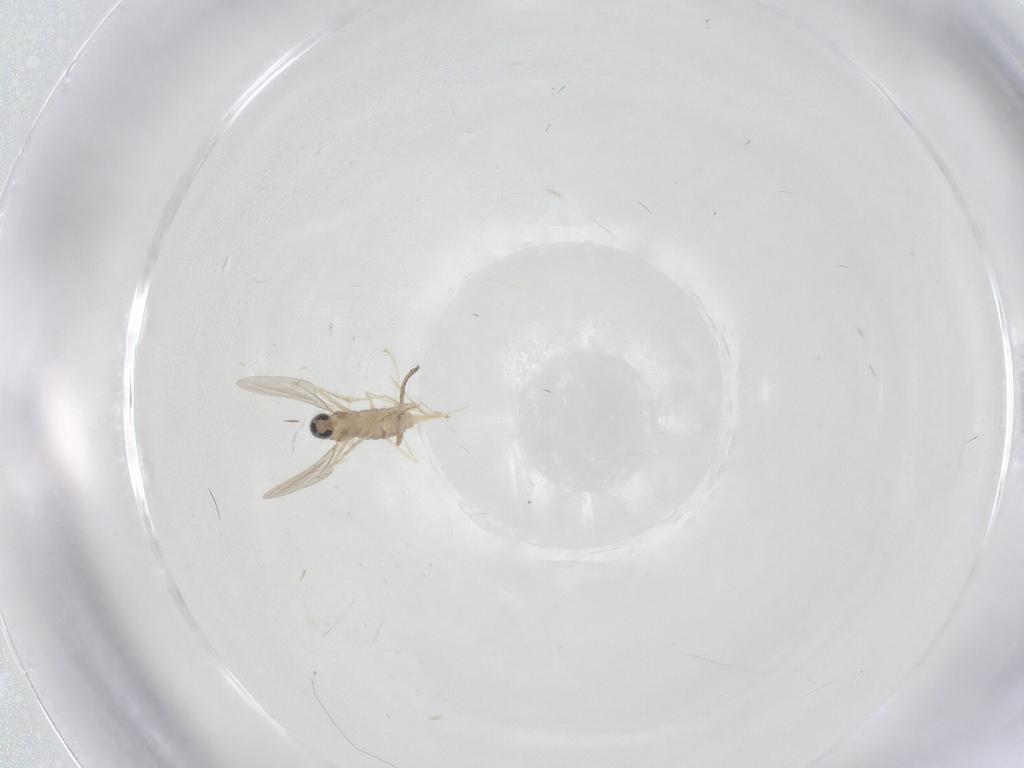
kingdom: Animalia
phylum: Arthropoda
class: Insecta
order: Diptera
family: Cecidomyiidae
